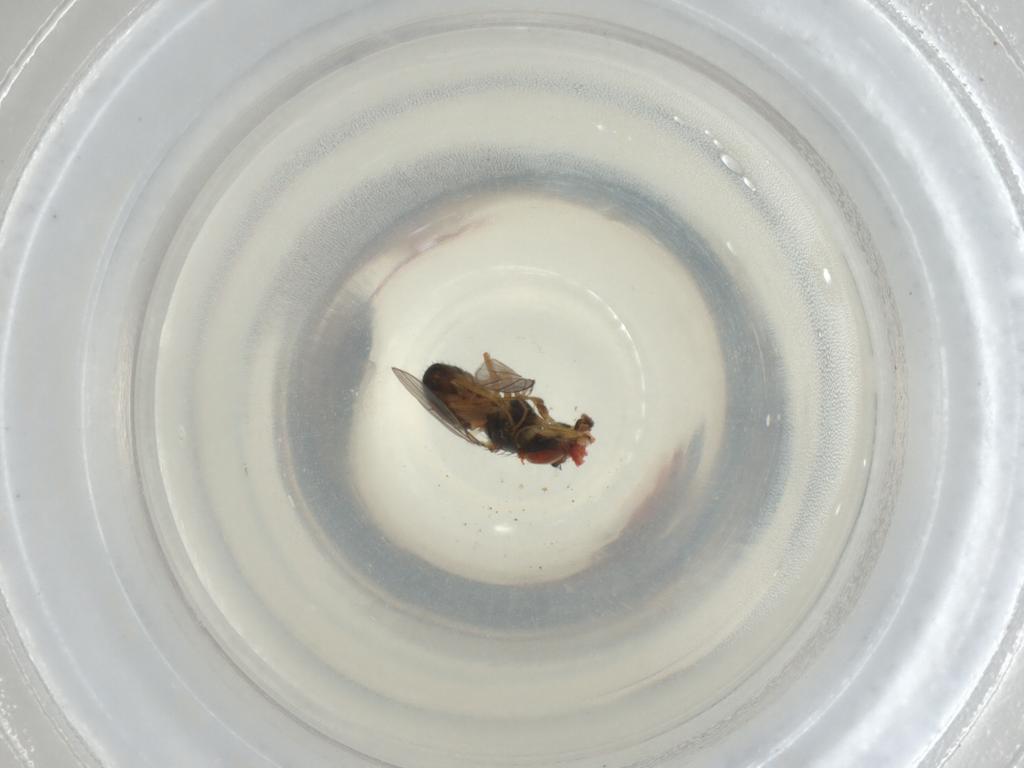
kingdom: Animalia
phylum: Arthropoda
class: Insecta
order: Diptera
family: Ephydridae
